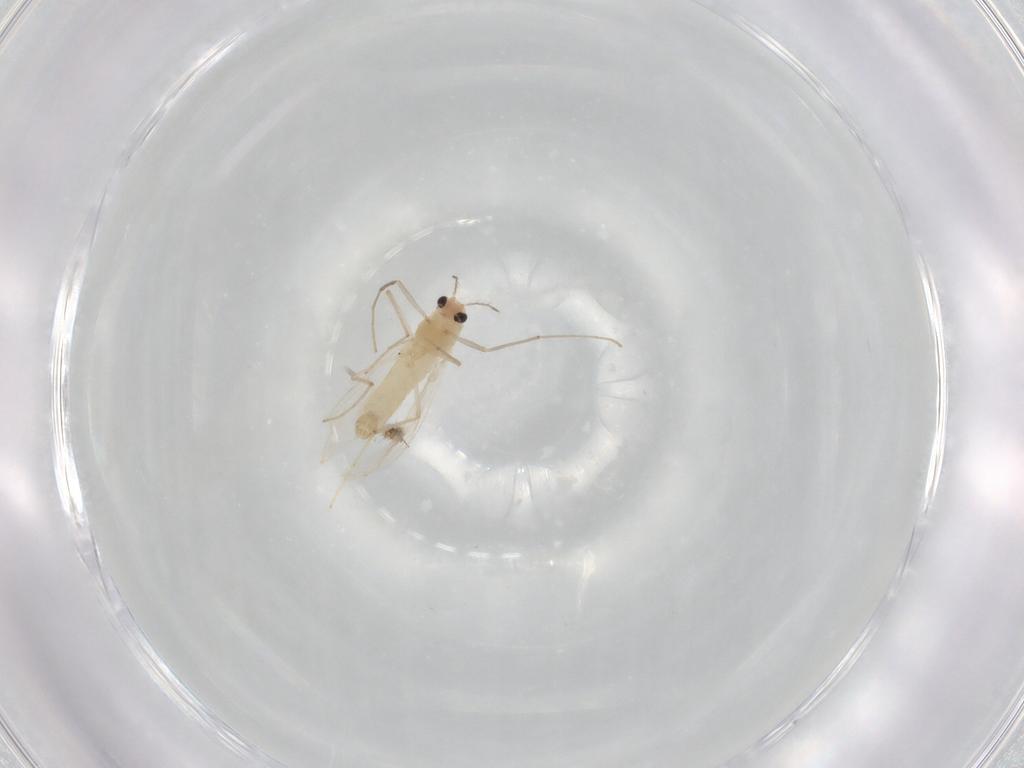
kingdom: Animalia
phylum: Arthropoda
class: Insecta
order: Diptera
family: Chironomidae
